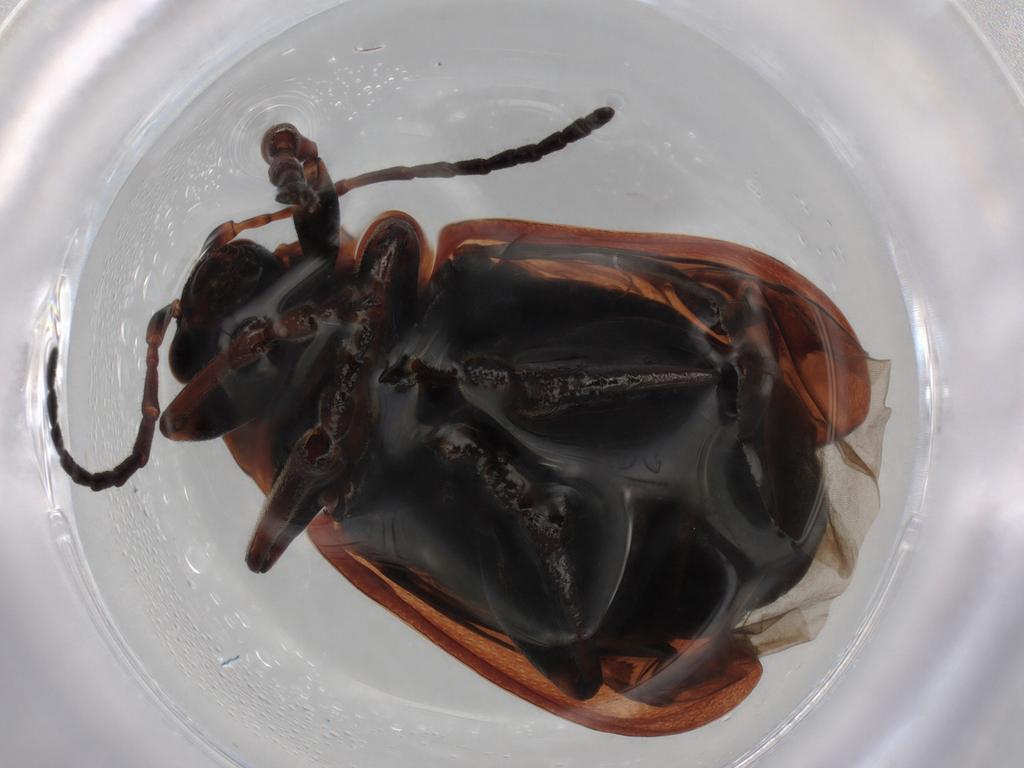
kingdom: Animalia
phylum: Arthropoda
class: Insecta
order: Coleoptera
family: Chrysomelidae
